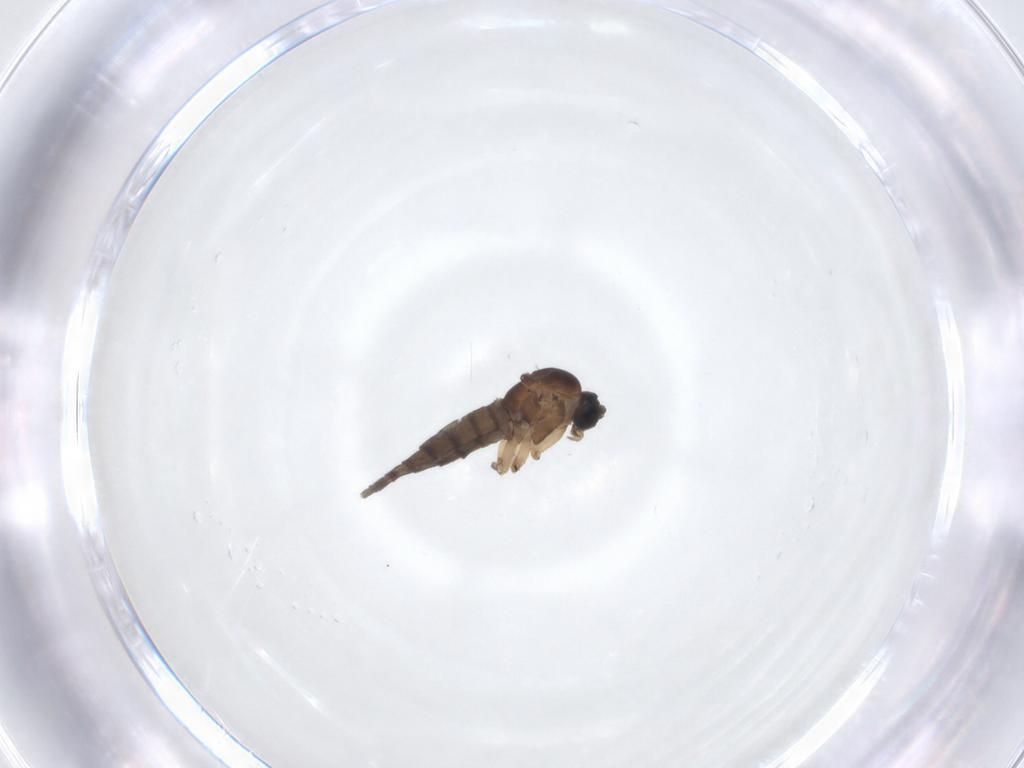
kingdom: Animalia
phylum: Arthropoda
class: Insecta
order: Diptera
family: Sciaridae
